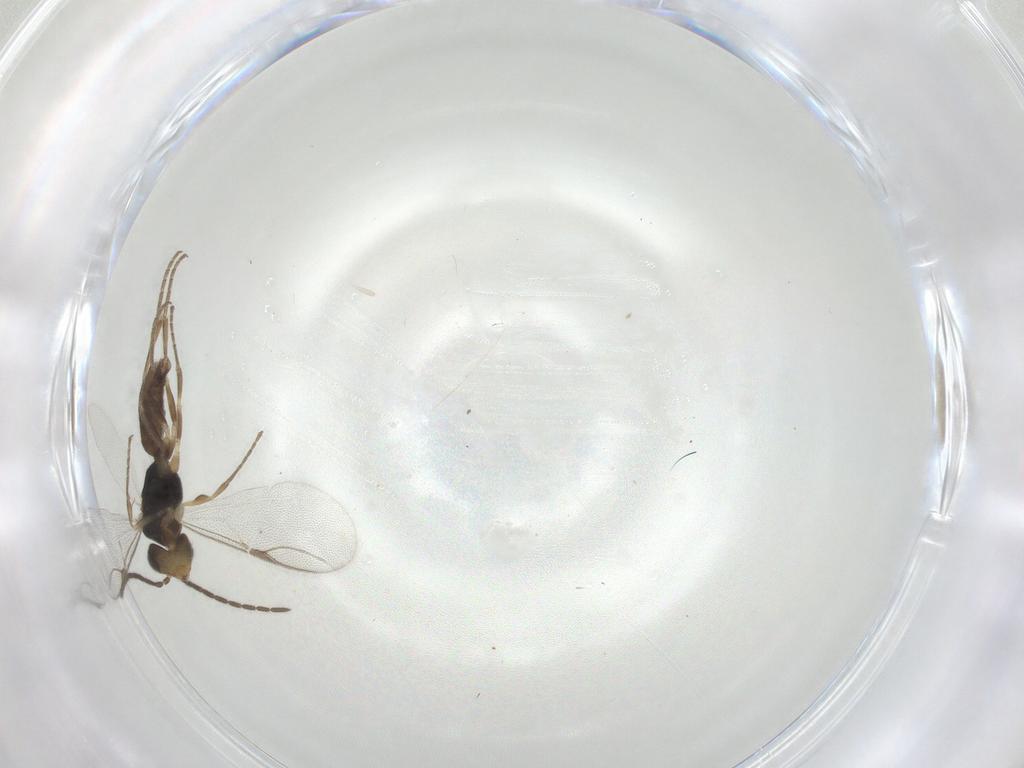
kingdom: Animalia
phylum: Arthropoda
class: Insecta
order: Hymenoptera
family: Dryinidae
